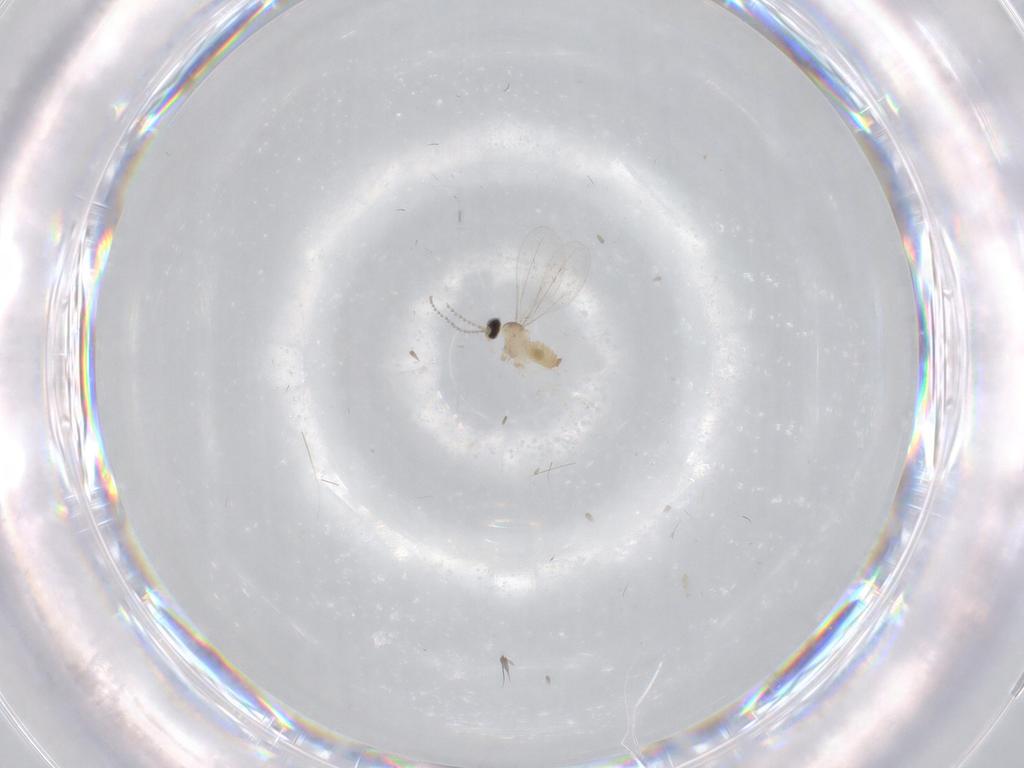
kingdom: Animalia
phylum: Arthropoda
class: Insecta
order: Diptera
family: Cecidomyiidae
